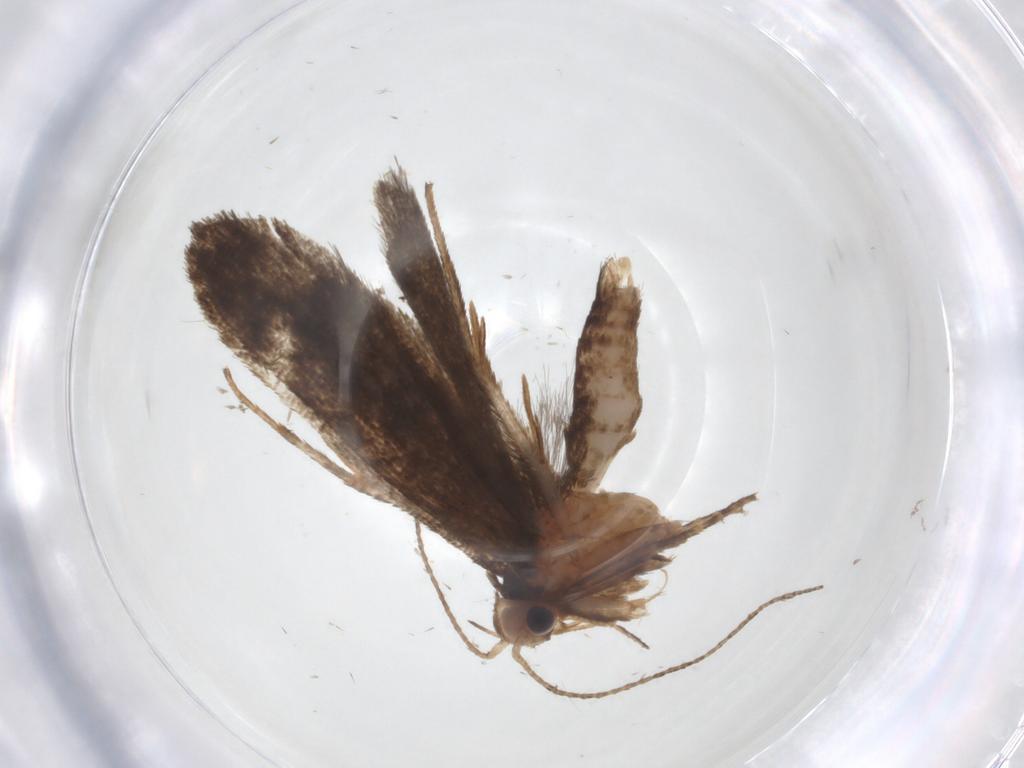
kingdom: Animalia
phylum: Arthropoda
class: Insecta
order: Lepidoptera
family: Gelechiidae
